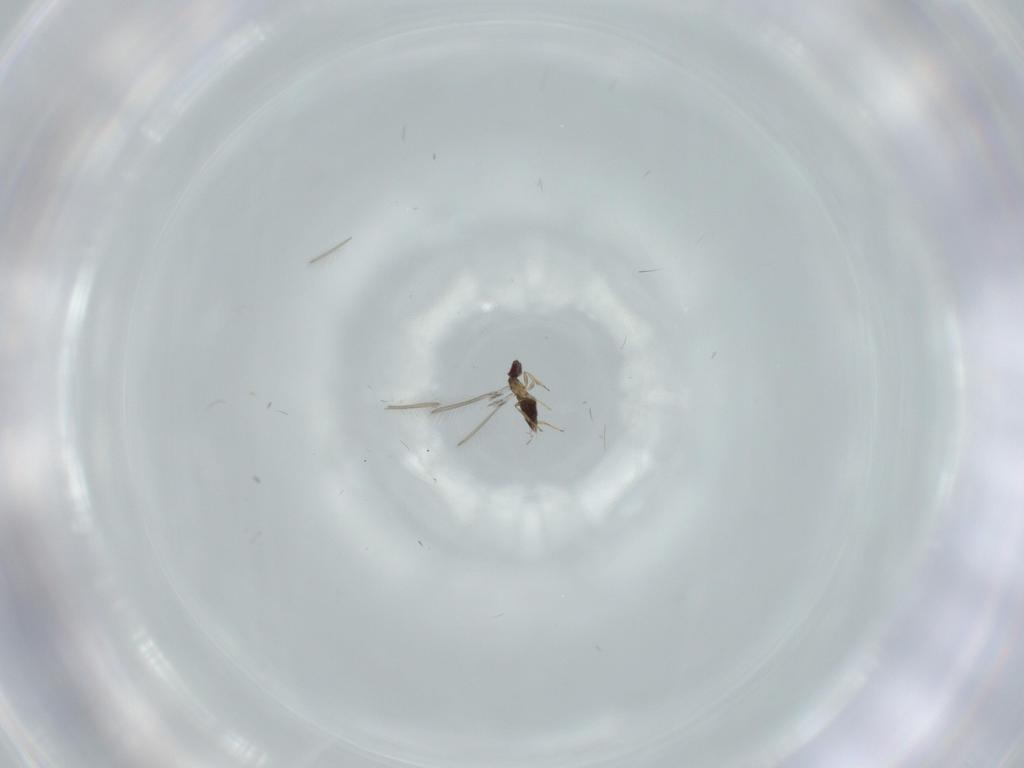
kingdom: Animalia
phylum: Arthropoda
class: Insecta
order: Hymenoptera
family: Mymaridae
